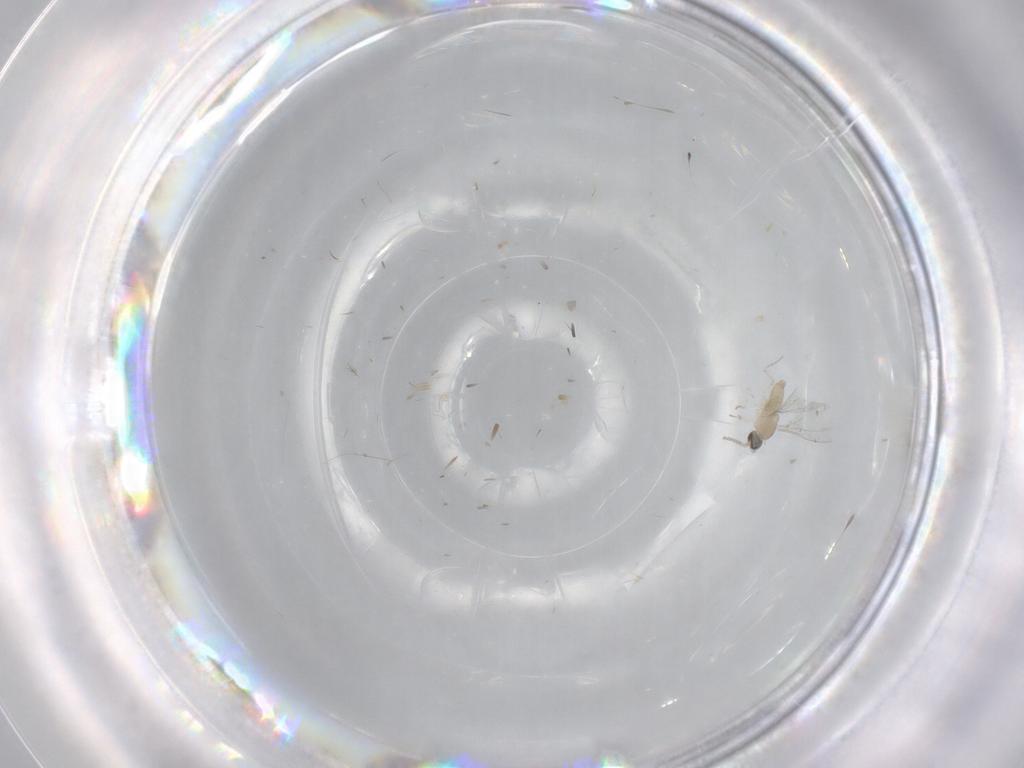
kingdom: Animalia
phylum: Arthropoda
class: Insecta
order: Diptera
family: Cecidomyiidae
